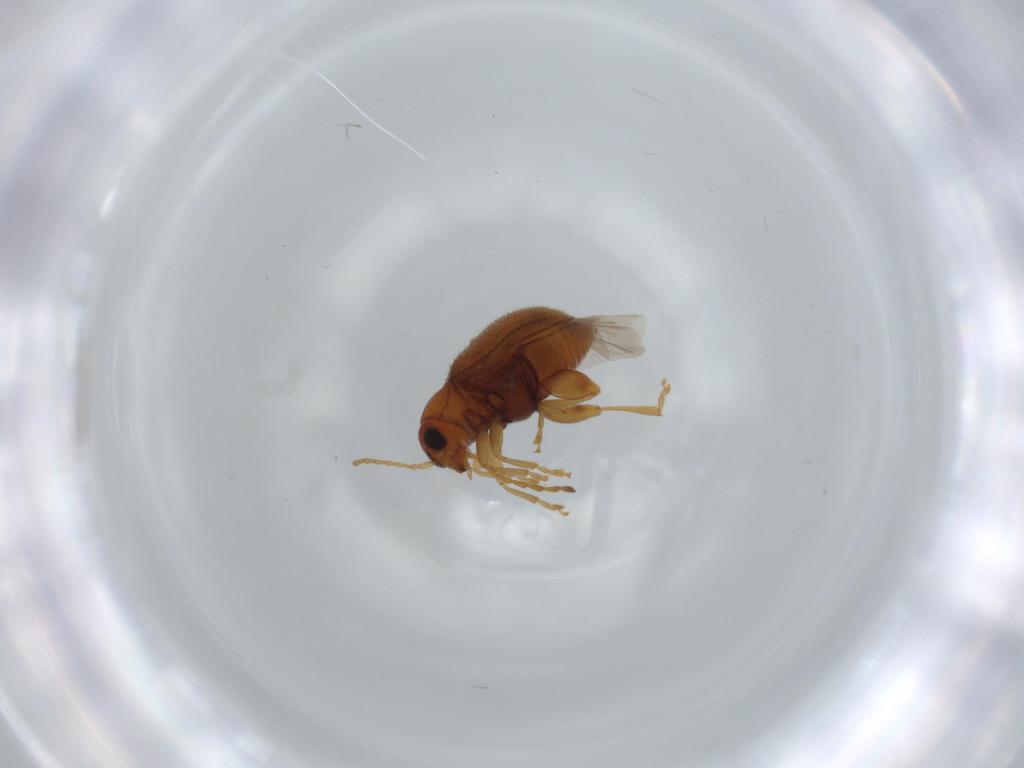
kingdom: Animalia
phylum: Arthropoda
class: Insecta
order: Coleoptera
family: Chrysomelidae
